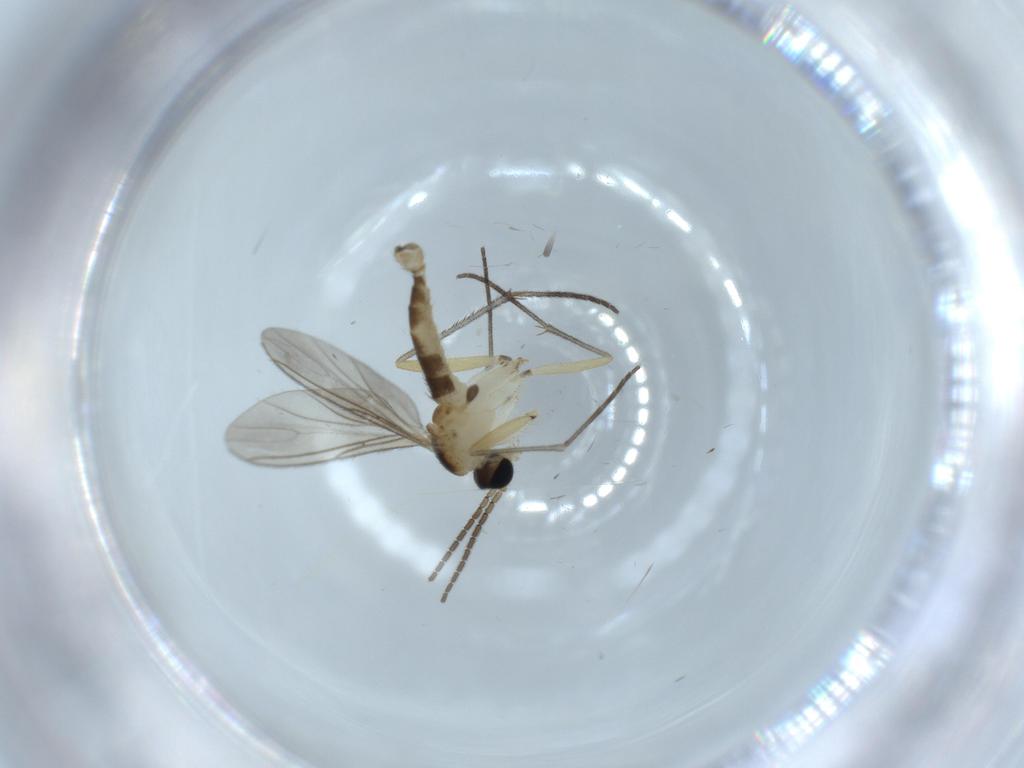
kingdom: Animalia
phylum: Arthropoda
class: Insecta
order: Diptera
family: Sciaridae
